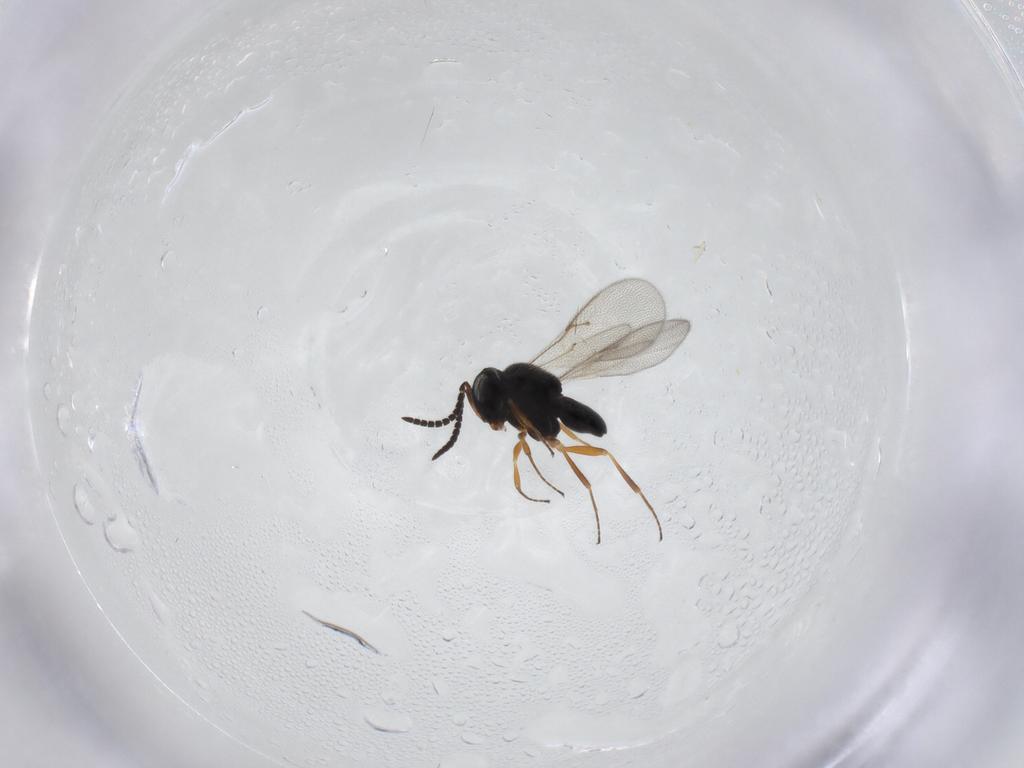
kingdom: Animalia
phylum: Arthropoda
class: Insecta
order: Hymenoptera
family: Scelionidae
